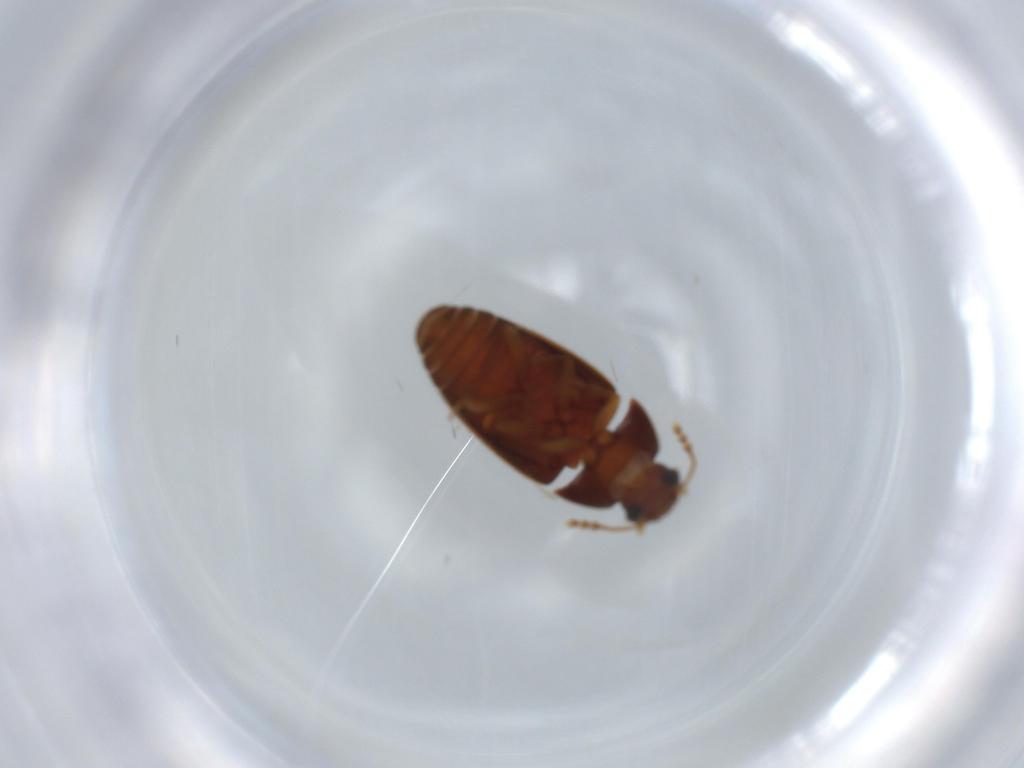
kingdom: Animalia
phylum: Arthropoda
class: Insecta
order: Coleoptera
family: Mycetophagidae
